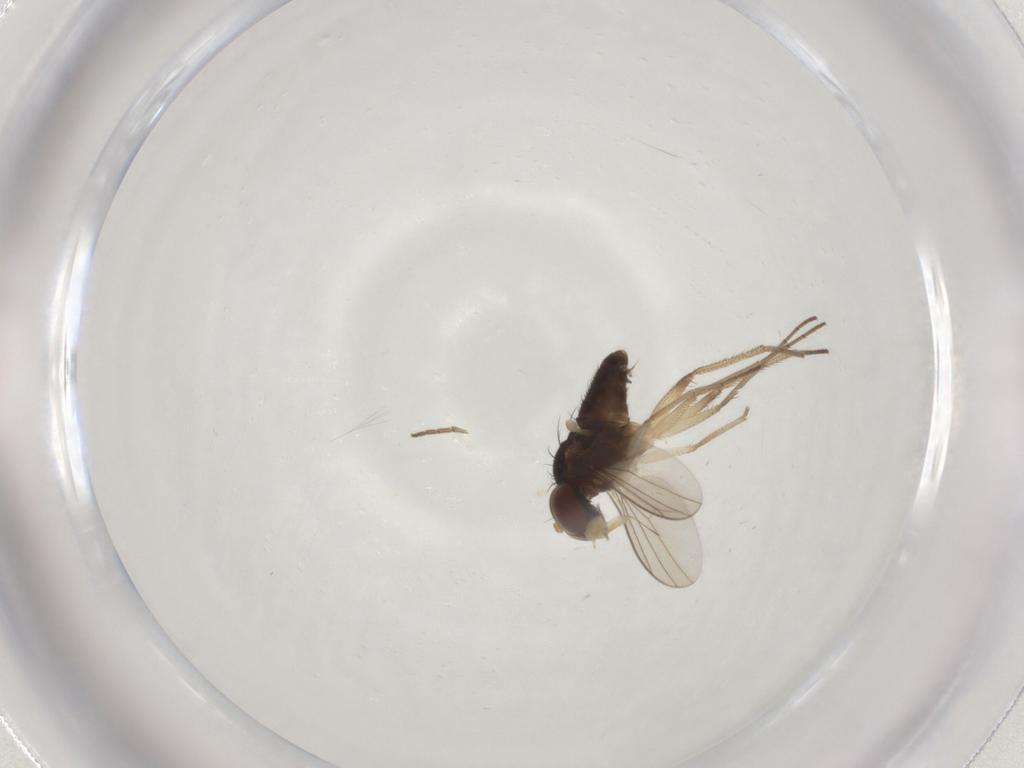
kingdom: Animalia
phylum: Arthropoda
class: Insecta
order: Diptera
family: Dolichopodidae
